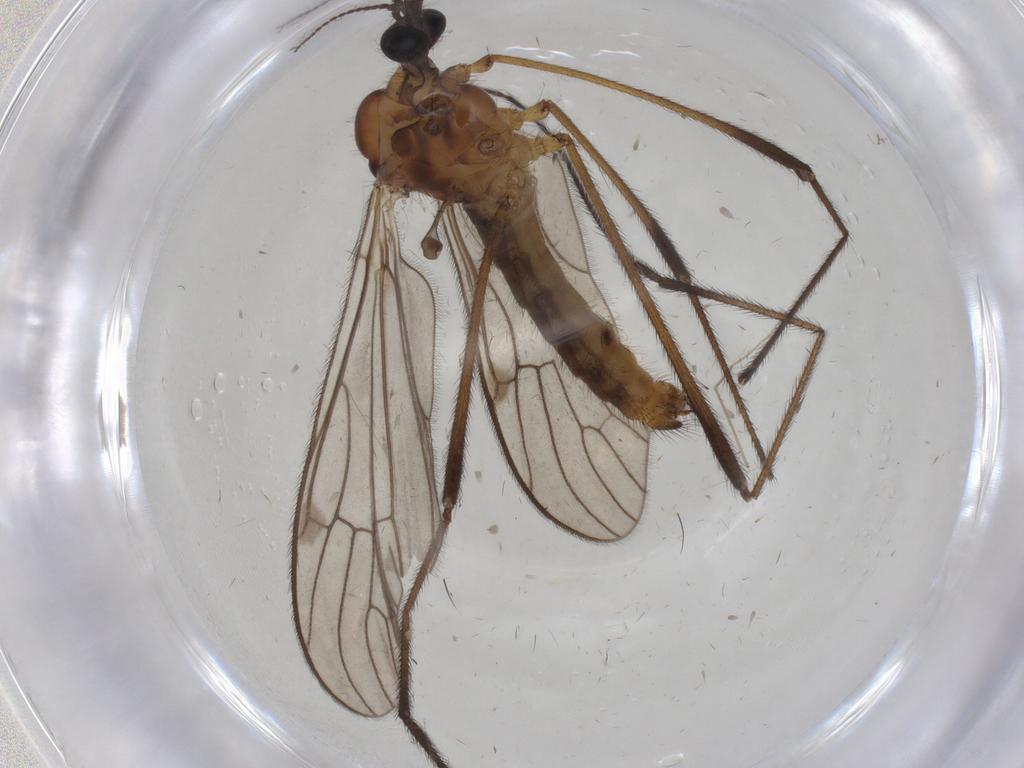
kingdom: Animalia
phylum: Arthropoda
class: Insecta
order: Diptera
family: Limoniidae
